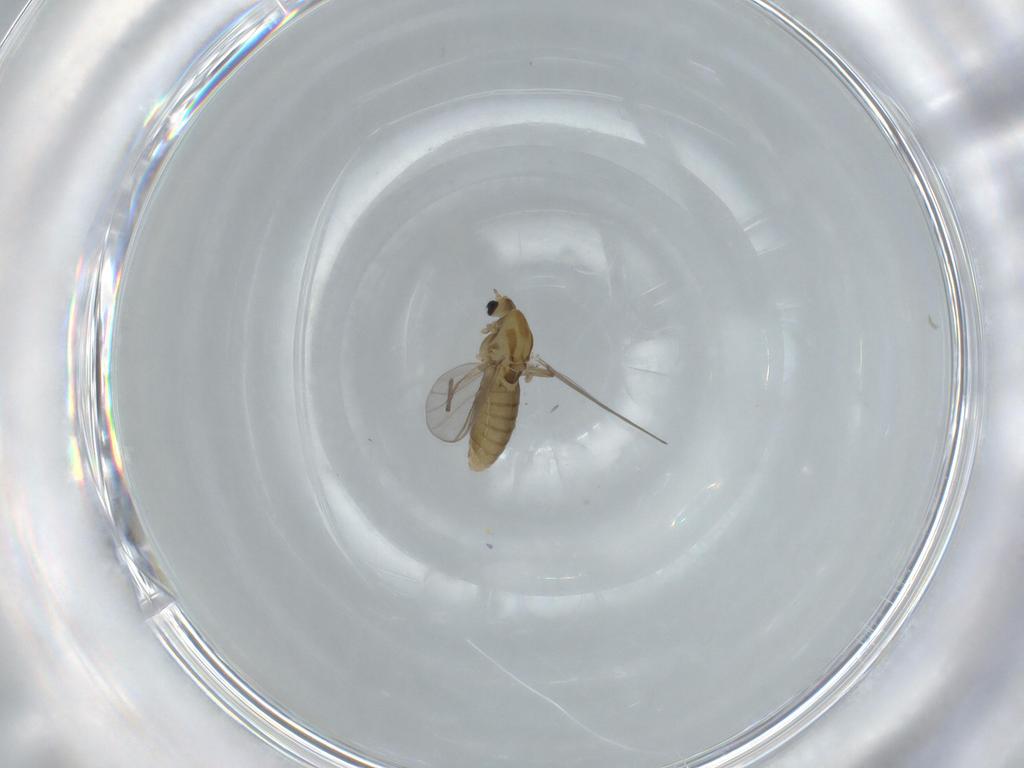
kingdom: Animalia
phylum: Arthropoda
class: Insecta
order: Diptera
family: Chironomidae
